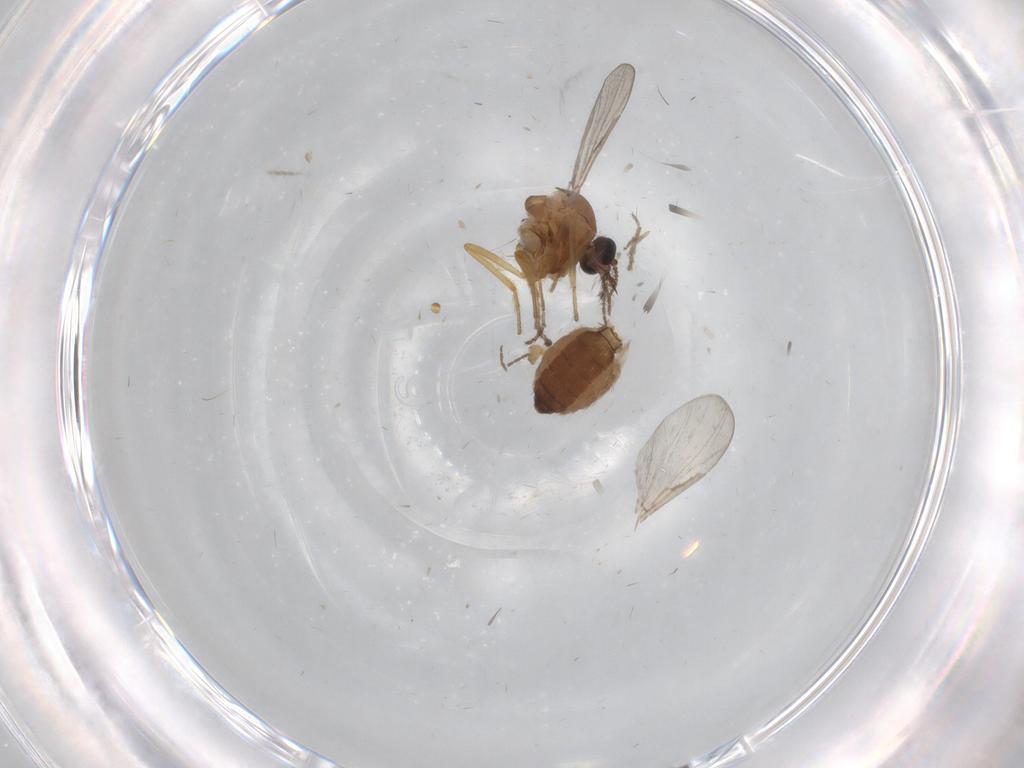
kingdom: Animalia
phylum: Arthropoda
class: Insecta
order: Diptera
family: Ceratopogonidae
